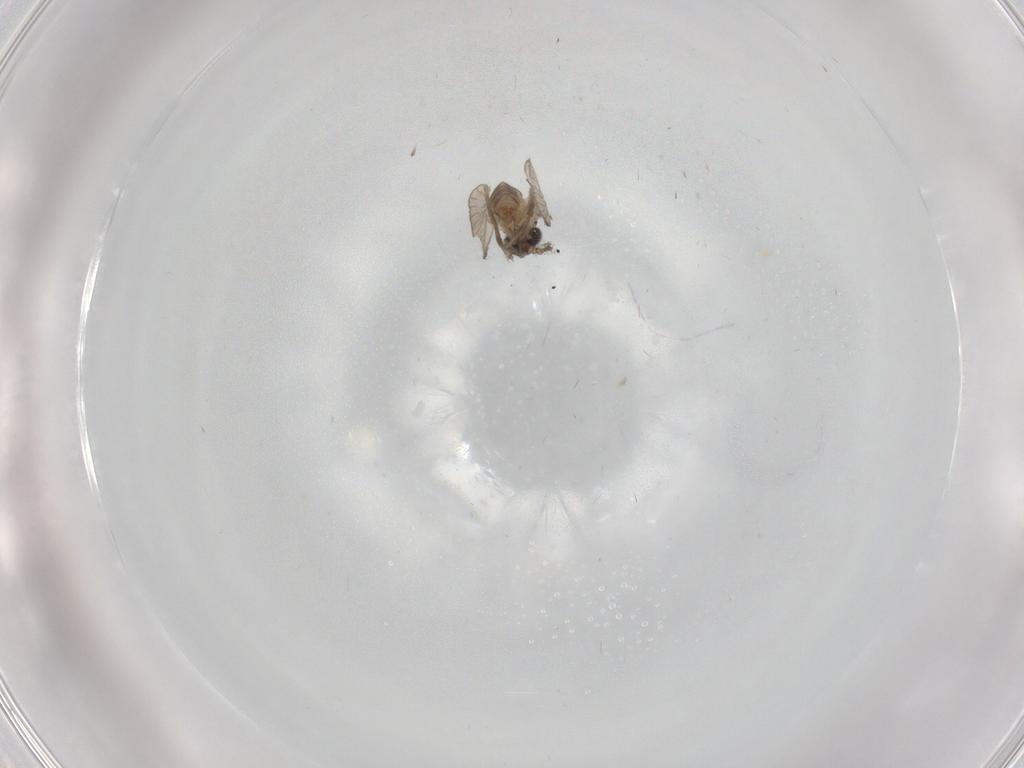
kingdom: Animalia
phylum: Arthropoda
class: Insecta
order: Diptera
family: Psychodidae
